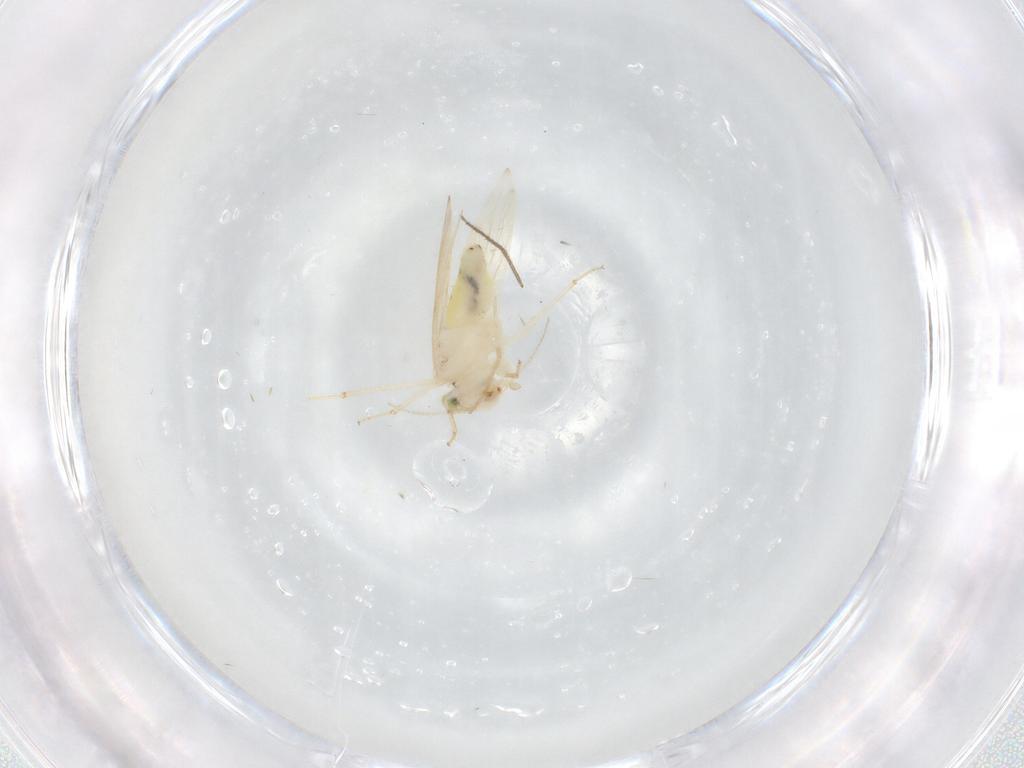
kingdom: Animalia
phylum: Arthropoda
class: Insecta
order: Psocodea
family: Lepidopsocidae
